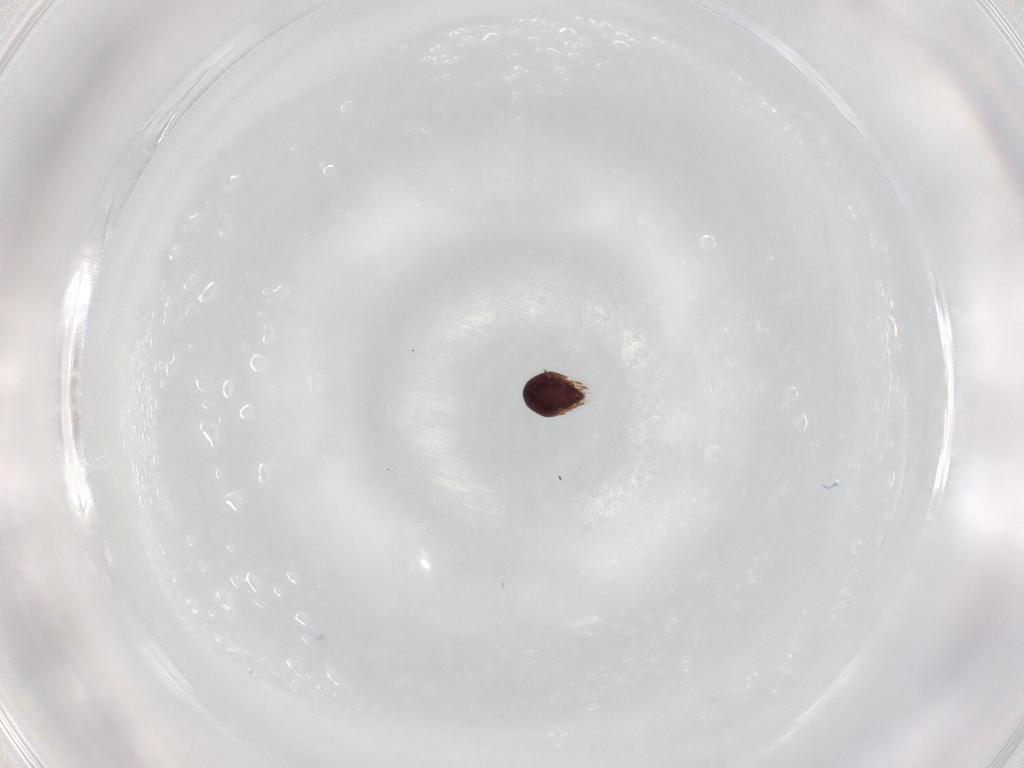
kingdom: Animalia
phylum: Arthropoda
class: Arachnida
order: Sarcoptiformes
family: Oribatellidae
